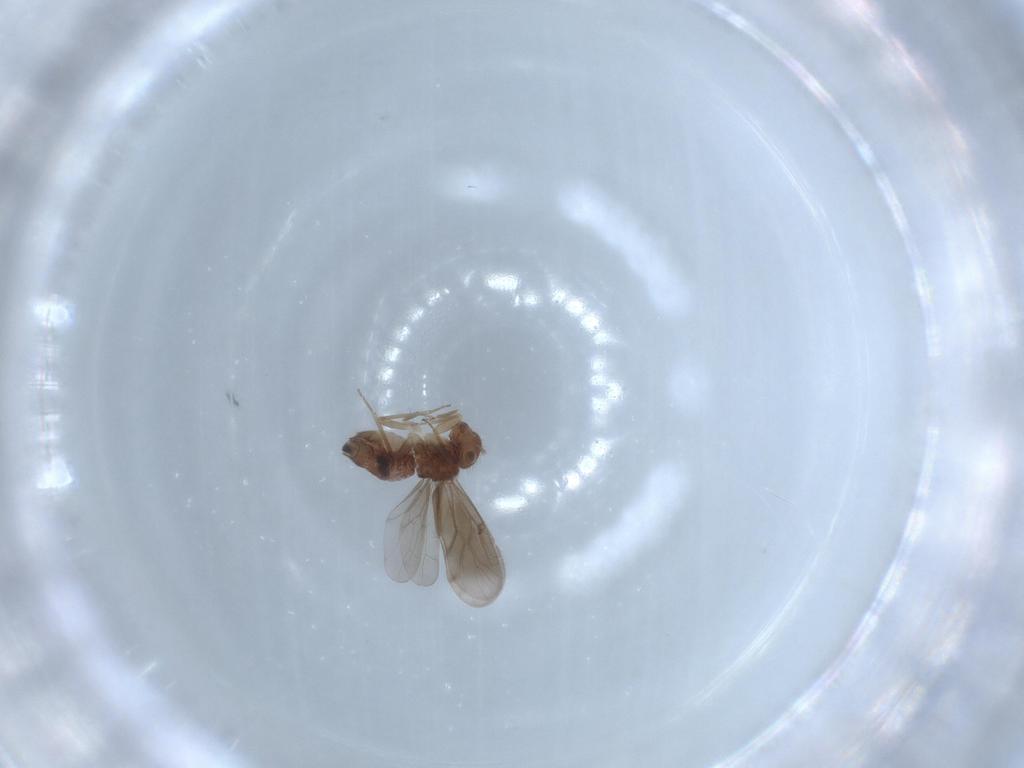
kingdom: Animalia
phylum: Arthropoda
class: Insecta
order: Psocodea
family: Ectopsocidae
